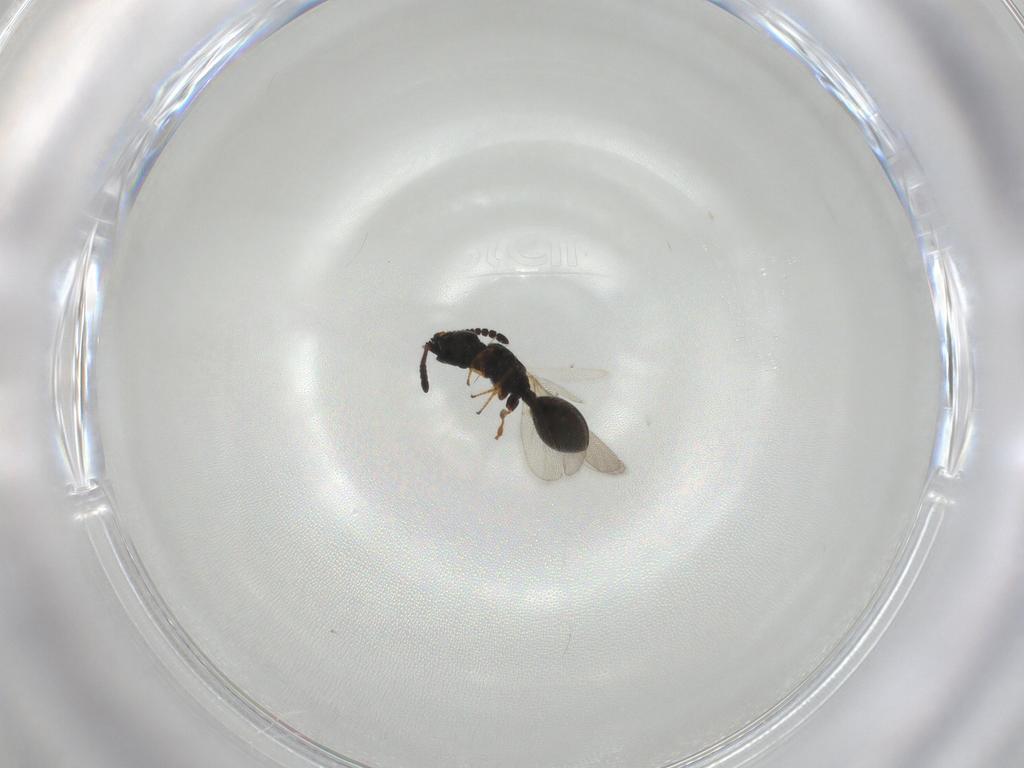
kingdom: Animalia
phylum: Arthropoda
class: Insecta
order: Hymenoptera
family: Diapriidae
